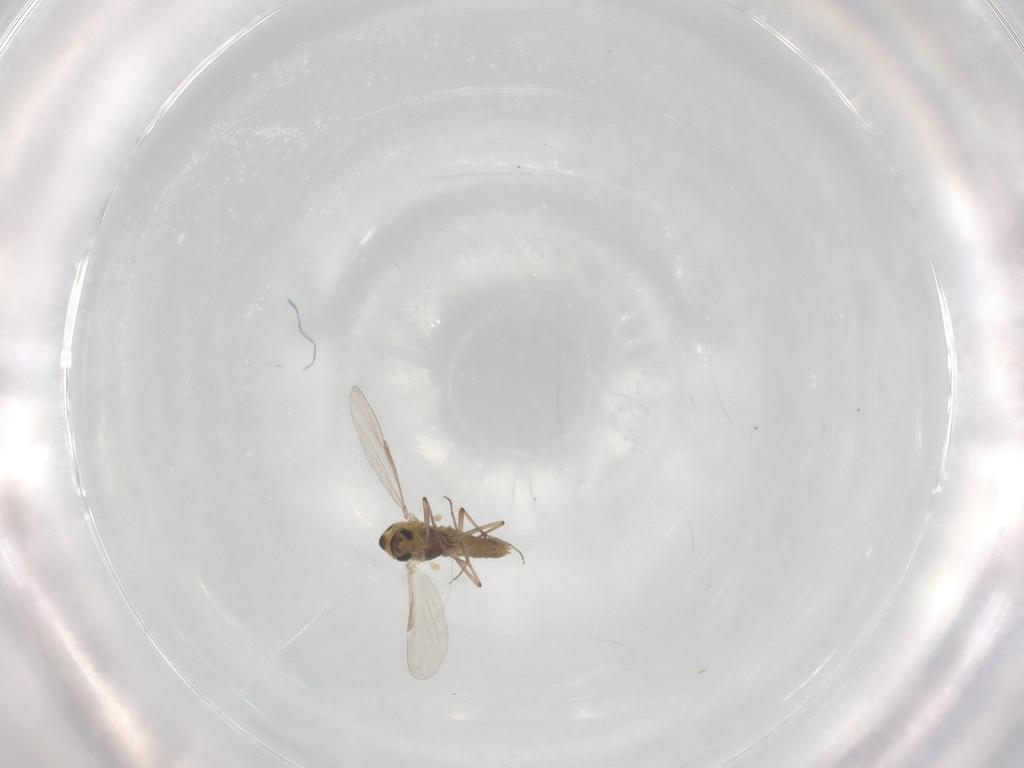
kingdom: Animalia
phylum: Arthropoda
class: Insecta
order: Diptera
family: Chironomidae
